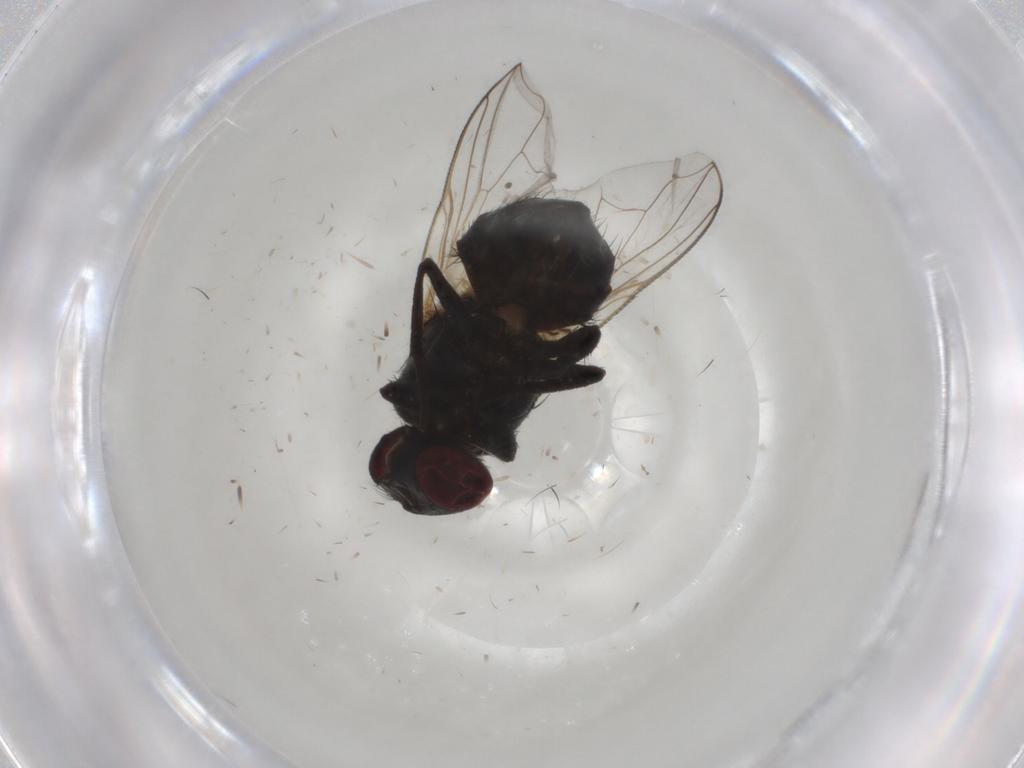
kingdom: Animalia
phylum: Arthropoda
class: Insecta
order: Diptera
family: Glossinidae
